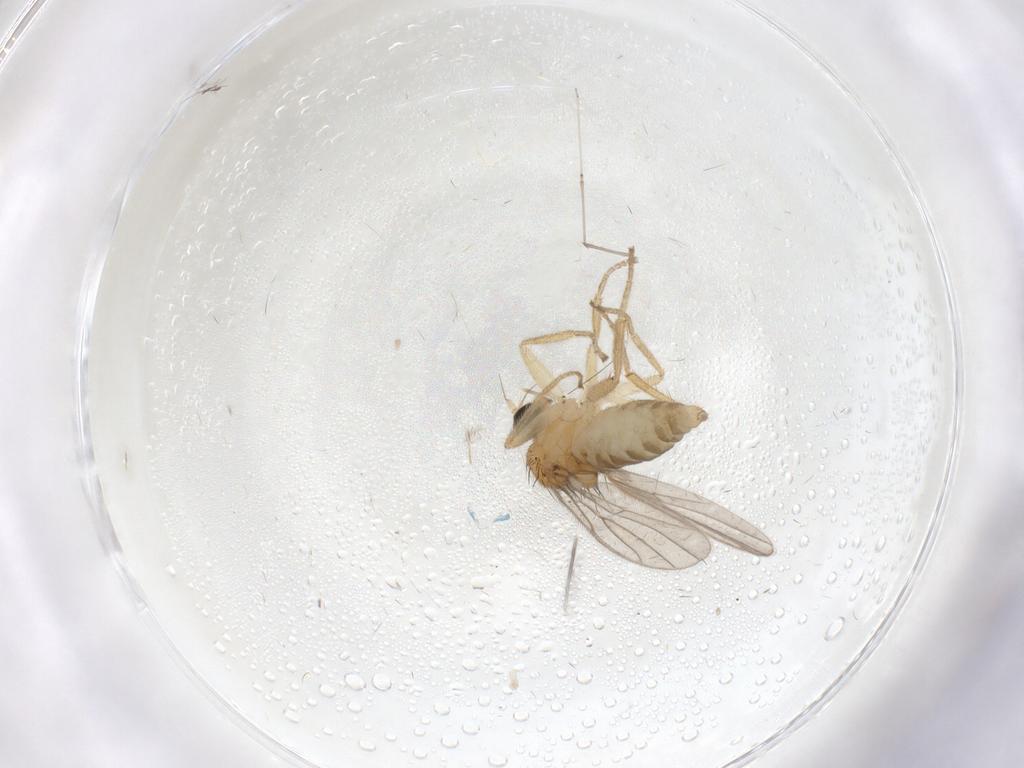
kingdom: Animalia
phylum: Arthropoda
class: Insecta
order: Diptera
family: Hybotidae
